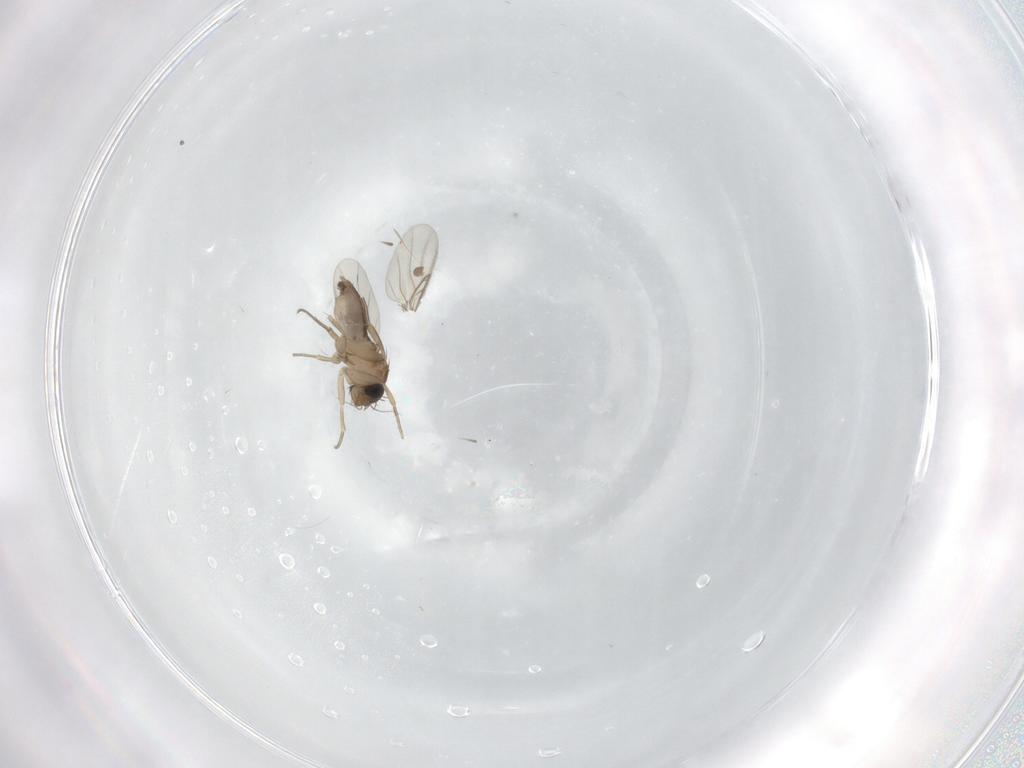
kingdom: Animalia
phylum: Arthropoda
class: Insecta
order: Diptera
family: Phoridae
